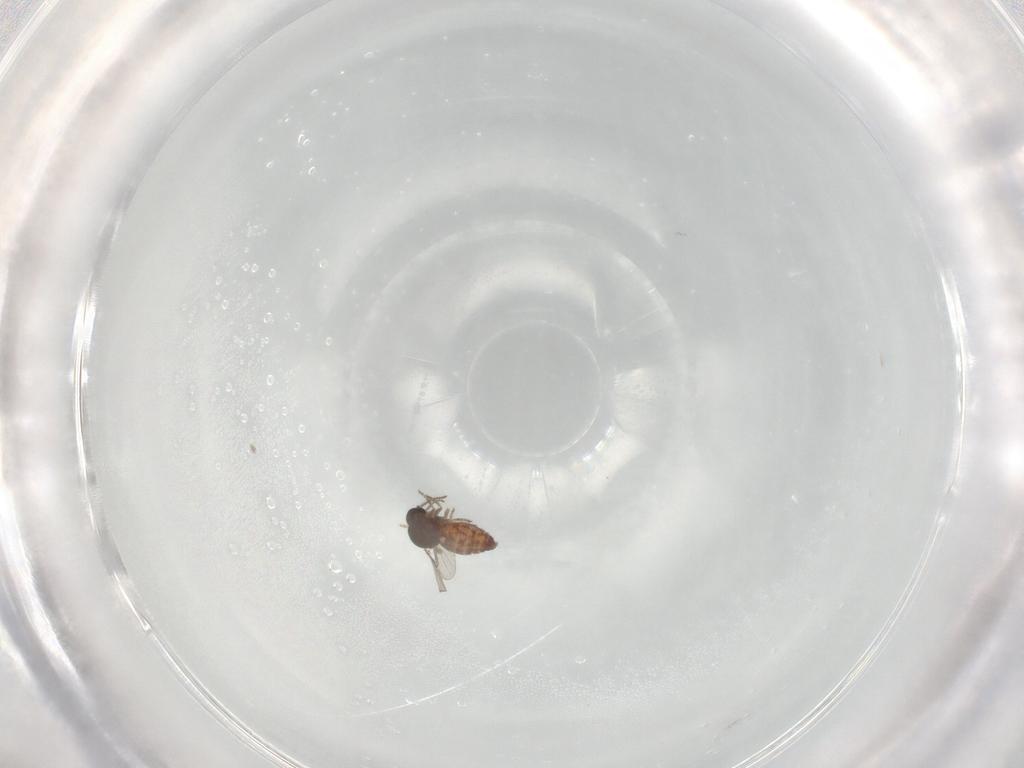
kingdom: Animalia
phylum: Arthropoda
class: Insecta
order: Diptera
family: Ceratopogonidae
